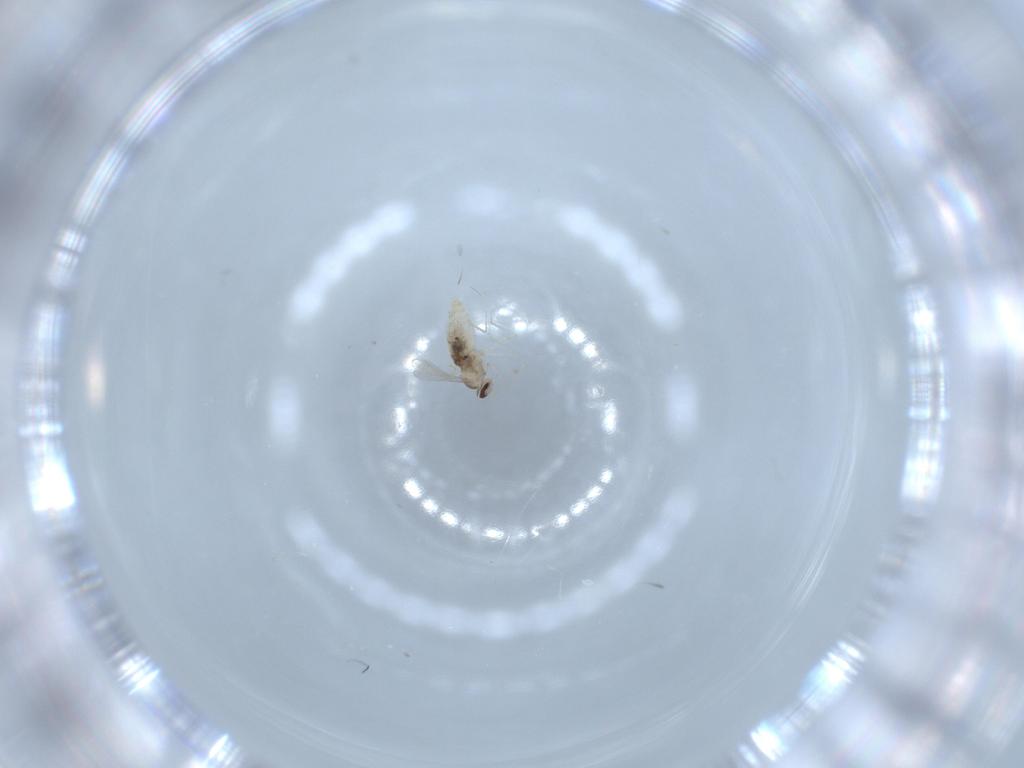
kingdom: Animalia
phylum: Arthropoda
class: Insecta
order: Diptera
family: Cecidomyiidae
